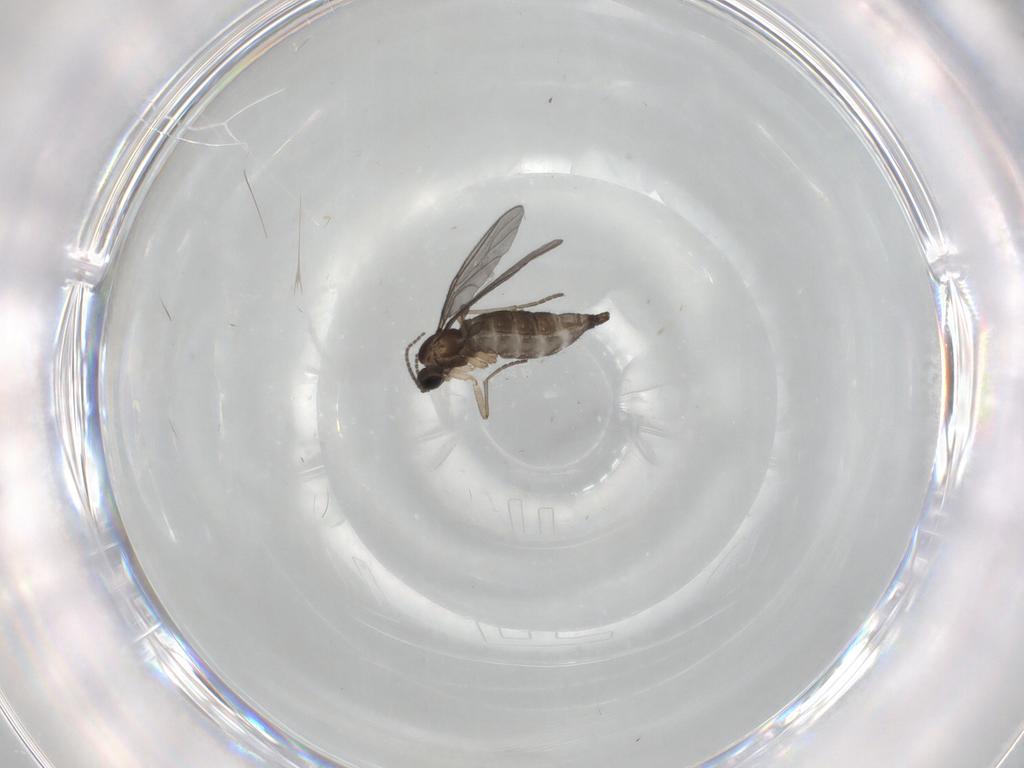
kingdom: Animalia
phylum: Arthropoda
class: Insecta
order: Diptera
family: Sciaridae
